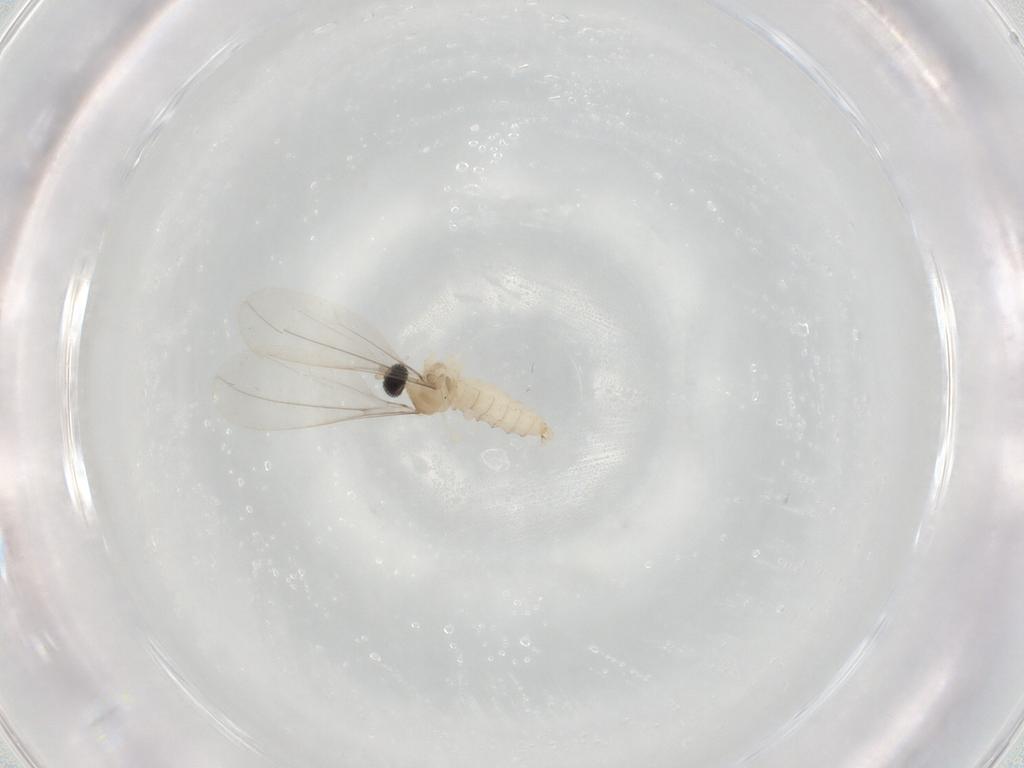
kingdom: Animalia
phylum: Arthropoda
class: Insecta
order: Diptera
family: Psychodidae
